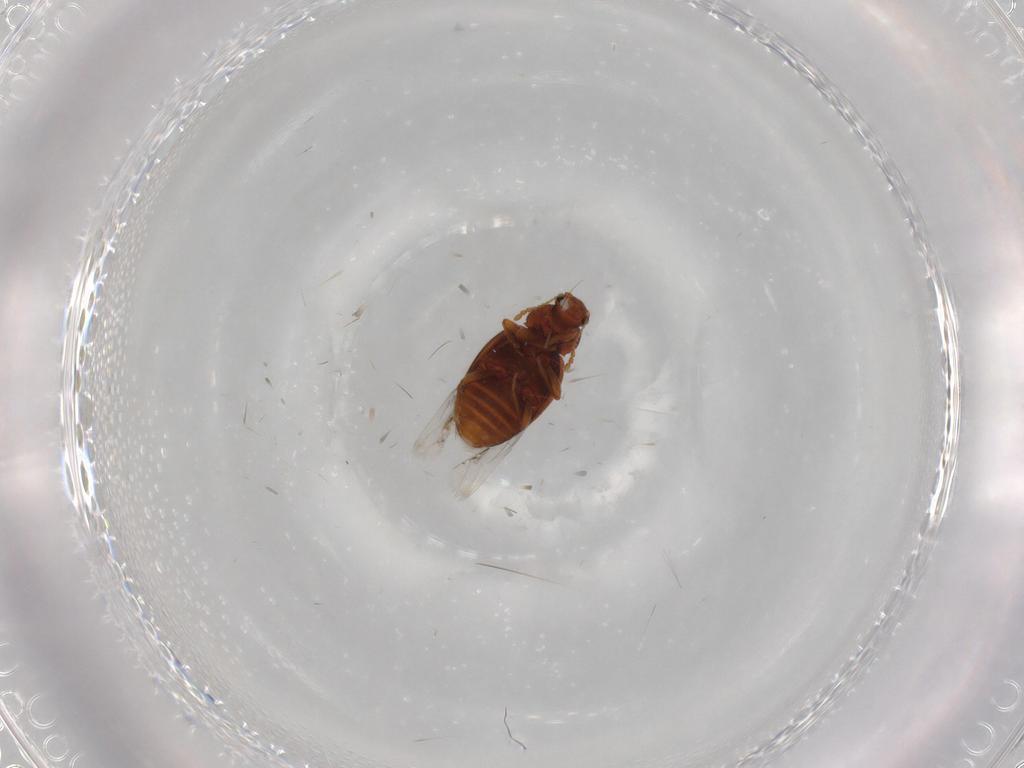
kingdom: Animalia
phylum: Arthropoda
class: Insecta
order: Coleoptera
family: Latridiidae
